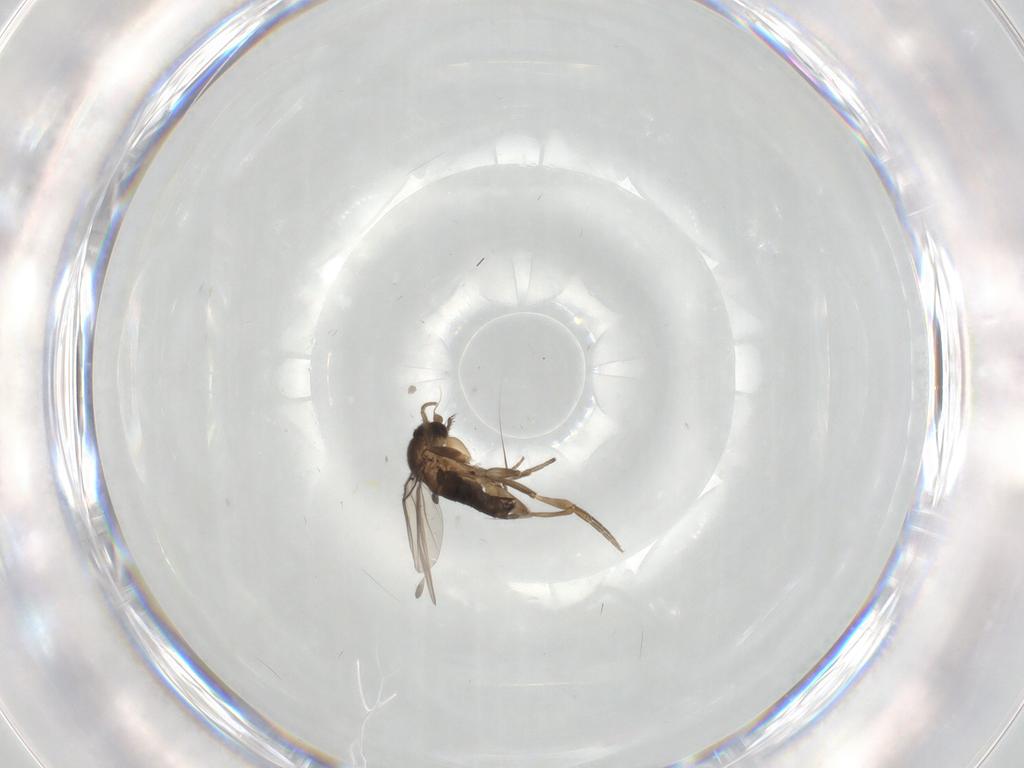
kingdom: Animalia
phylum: Arthropoda
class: Insecta
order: Diptera
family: Phoridae
